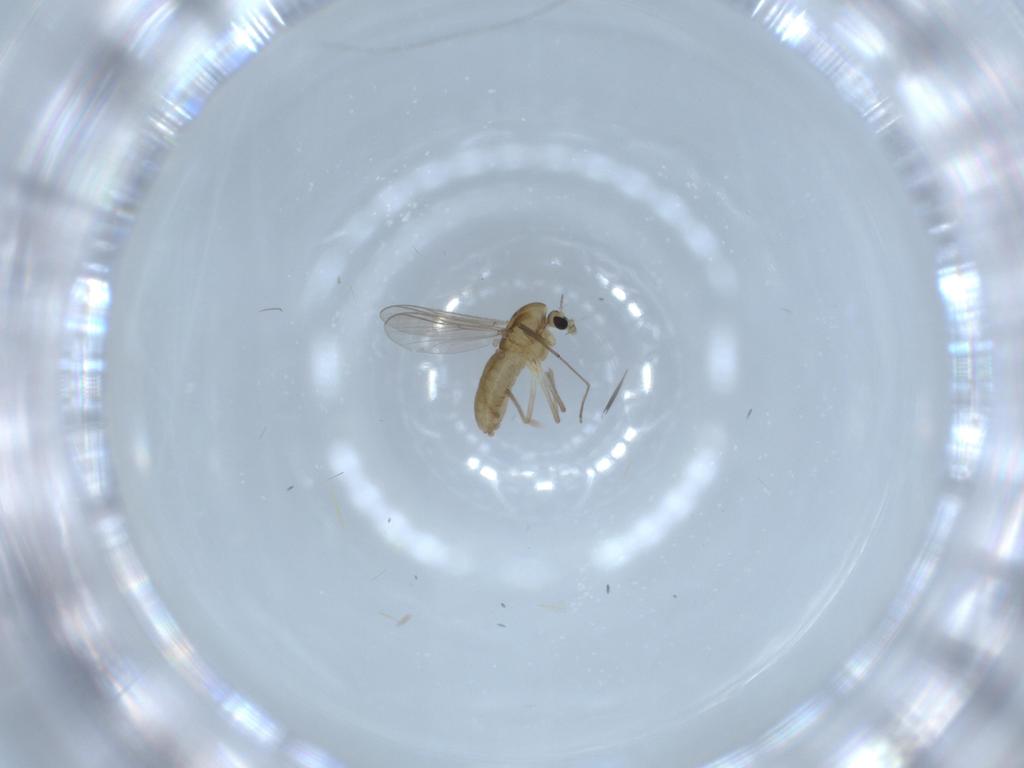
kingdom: Animalia
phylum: Arthropoda
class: Insecta
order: Diptera
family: Chironomidae
